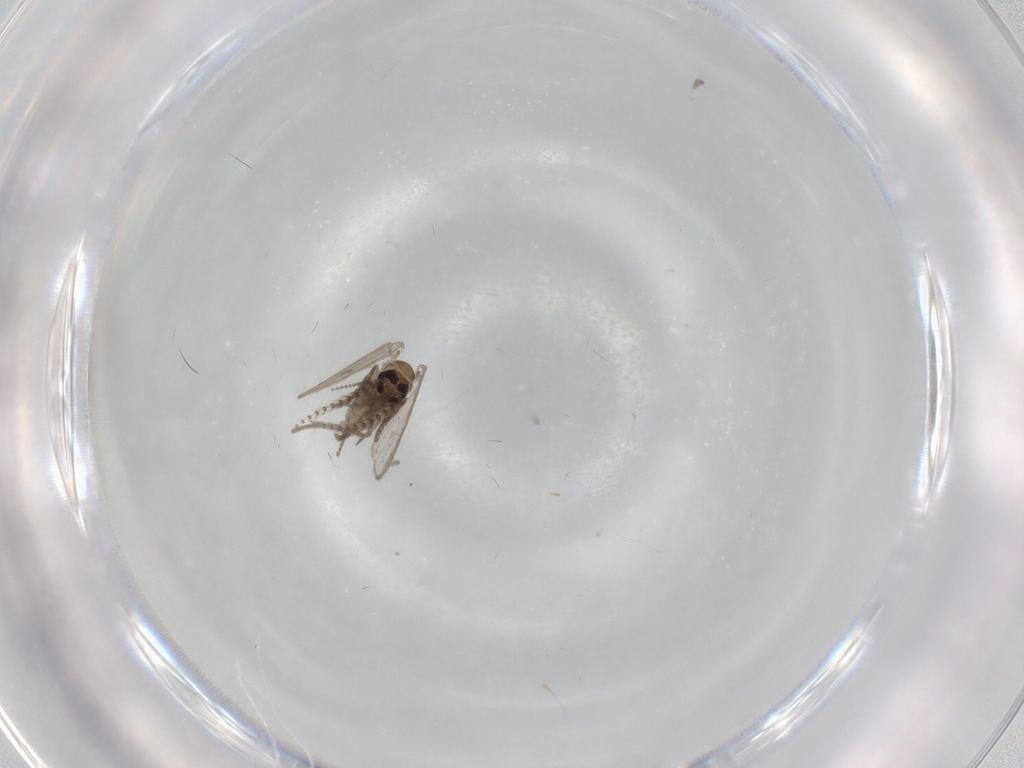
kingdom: Animalia
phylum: Arthropoda
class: Insecta
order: Diptera
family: Psychodidae
